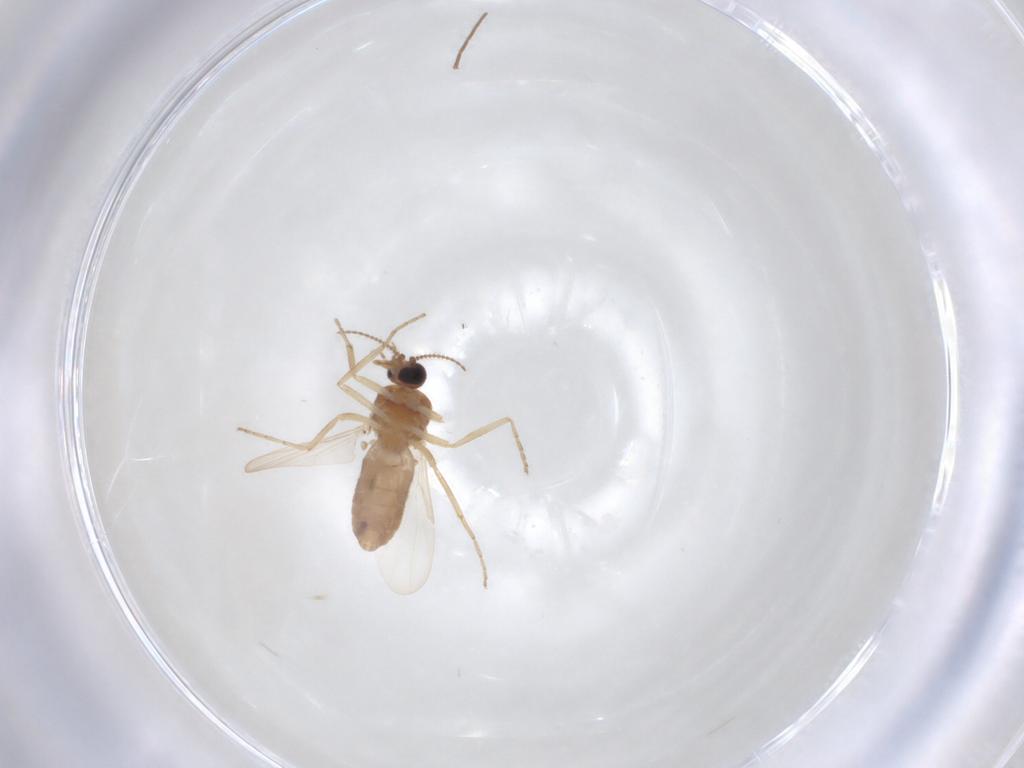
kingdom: Animalia
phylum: Arthropoda
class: Insecta
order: Diptera
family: Ceratopogonidae
